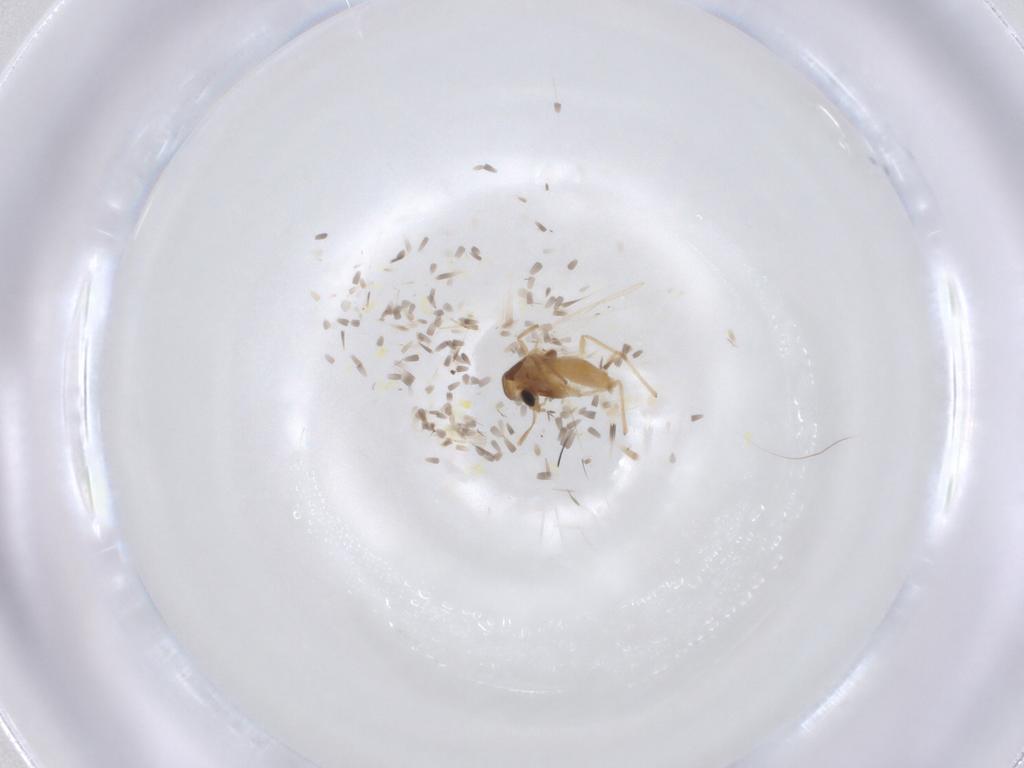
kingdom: Animalia
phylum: Arthropoda
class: Insecta
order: Diptera
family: Chironomidae
